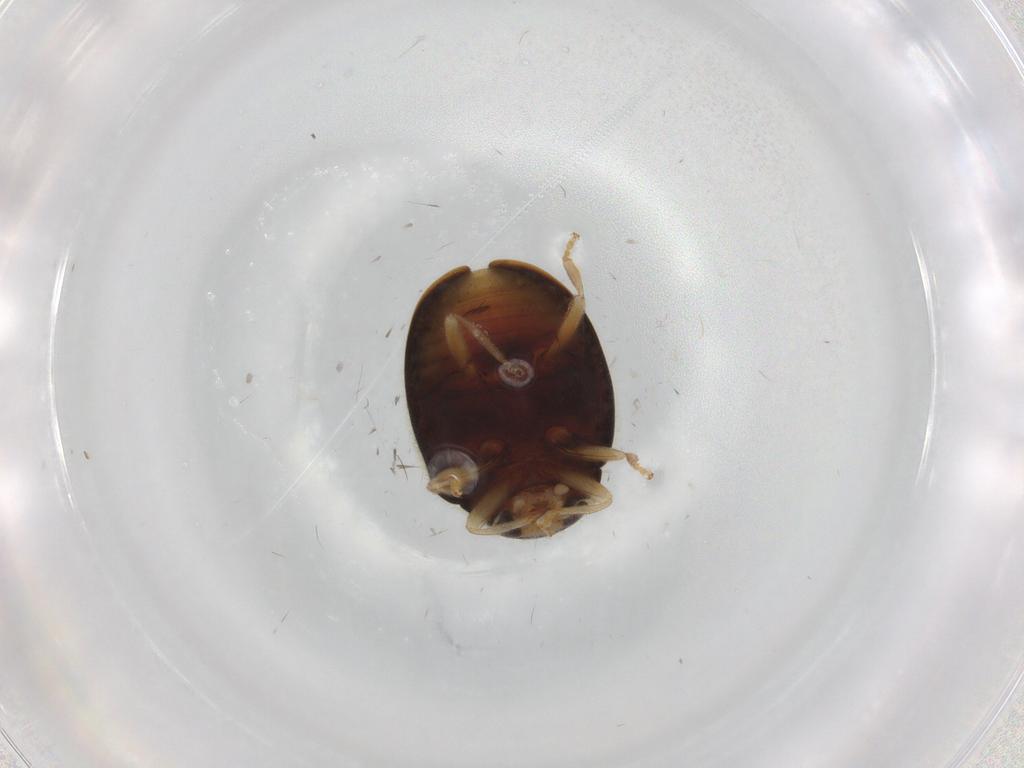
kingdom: Animalia
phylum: Arthropoda
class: Insecta
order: Coleoptera
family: Coccinellidae
